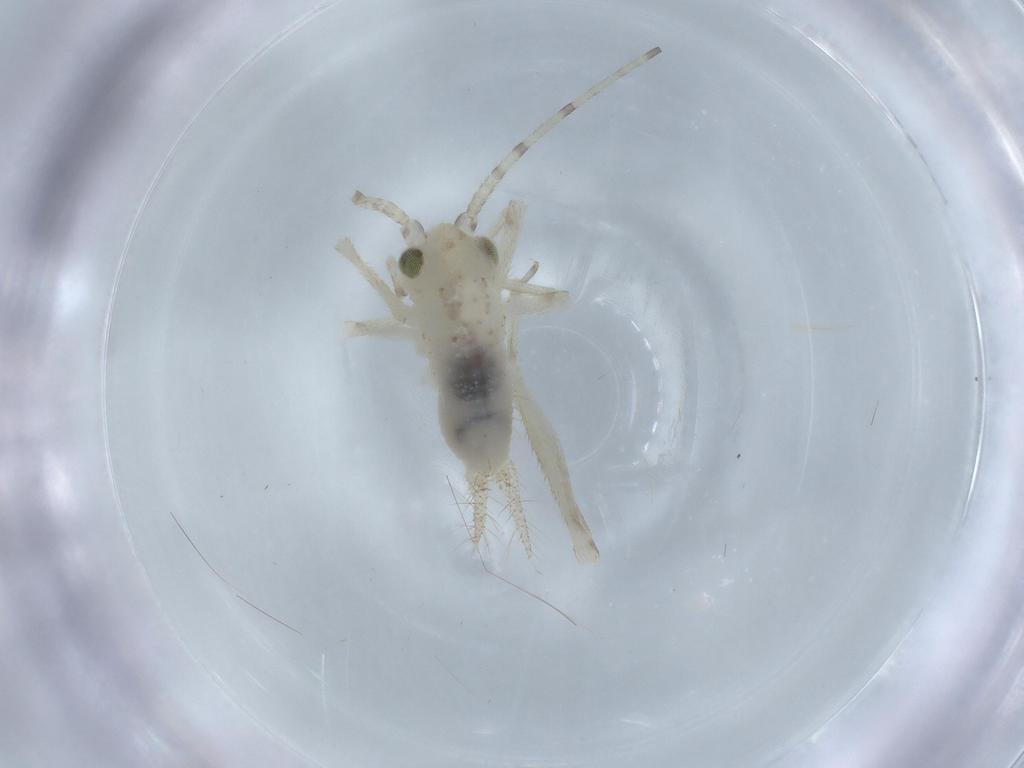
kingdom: Animalia
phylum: Arthropoda
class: Insecta
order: Orthoptera
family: Trigonidiidae
